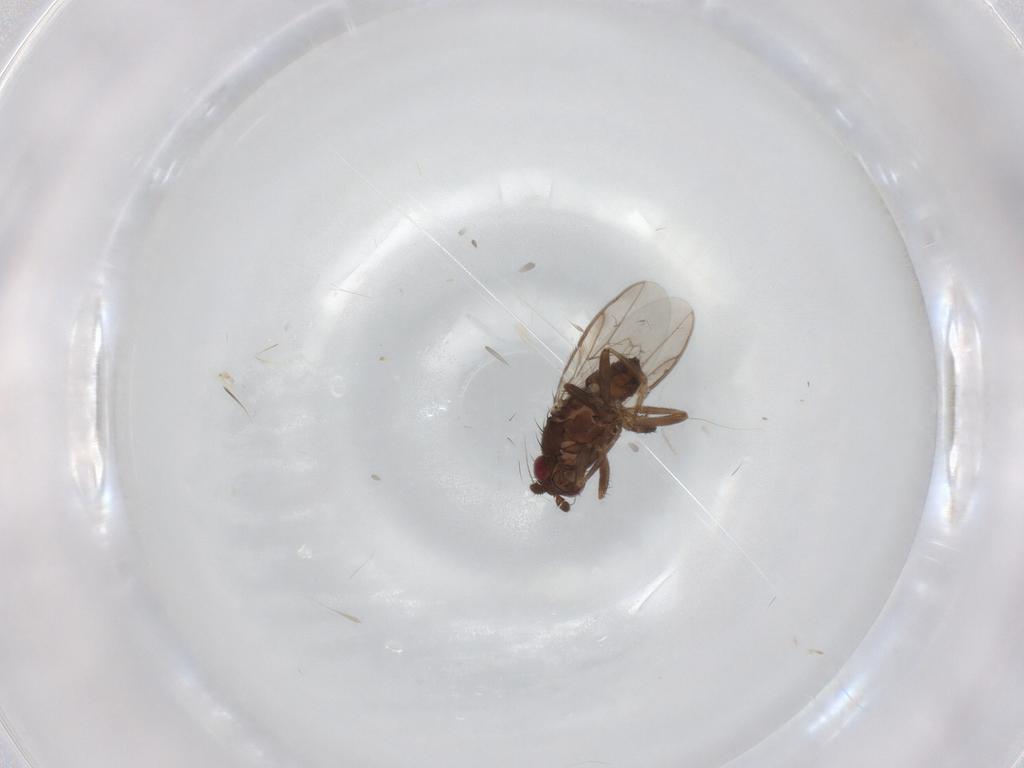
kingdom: Animalia
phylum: Arthropoda
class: Insecta
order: Diptera
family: Sphaeroceridae
